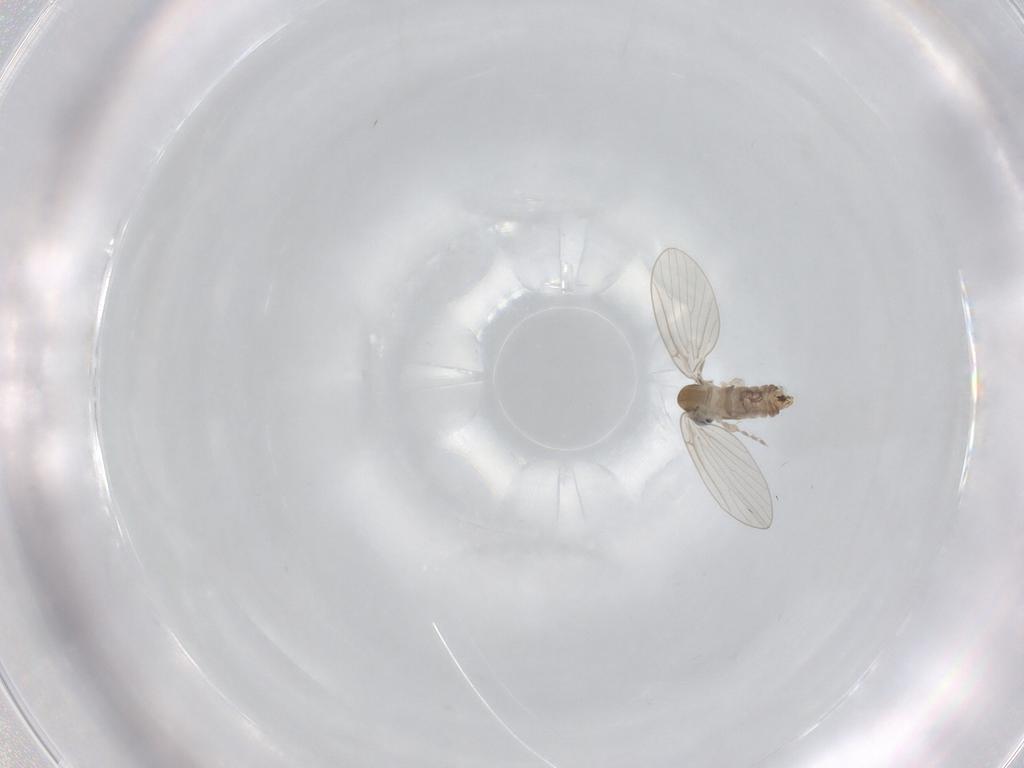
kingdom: Animalia
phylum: Arthropoda
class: Insecta
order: Diptera
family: Psychodidae
